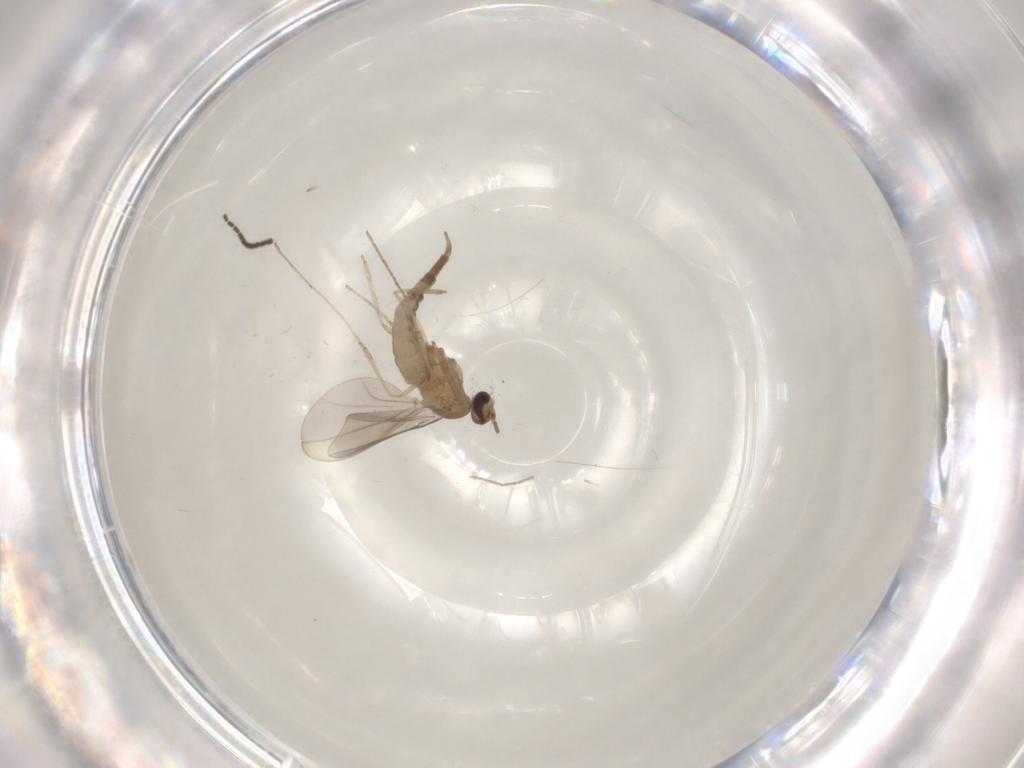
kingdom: Animalia
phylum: Arthropoda
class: Insecta
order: Diptera
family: Cecidomyiidae
